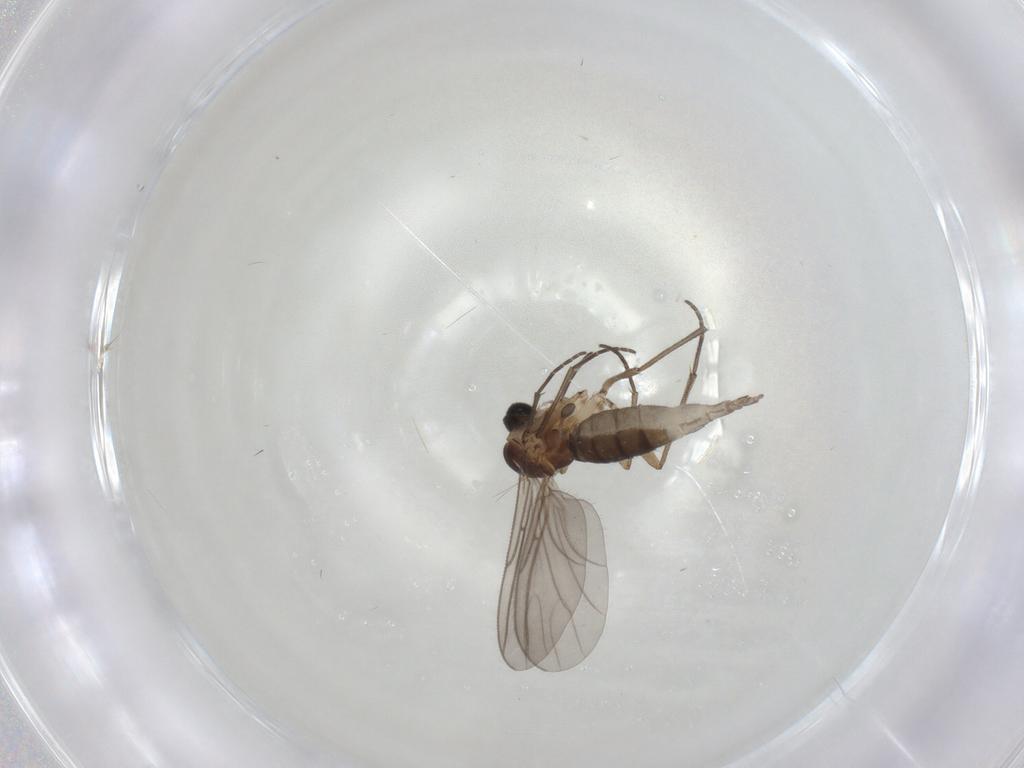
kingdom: Animalia
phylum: Arthropoda
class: Insecta
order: Diptera
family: Sciaridae
